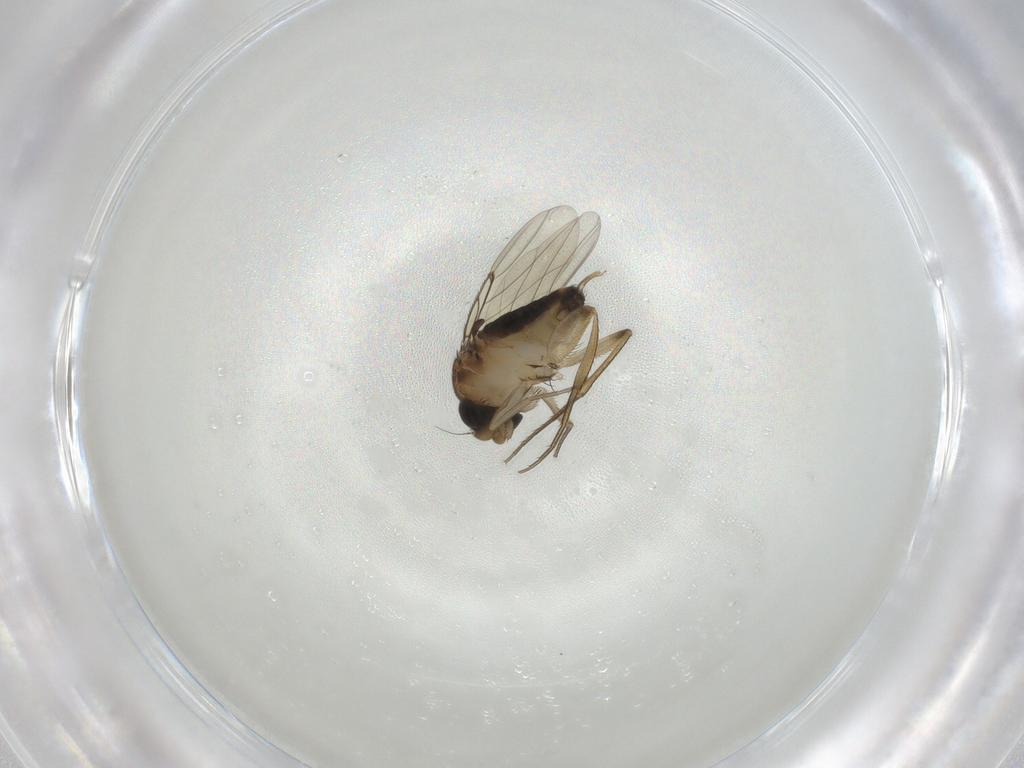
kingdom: Animalia
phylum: Arthropoda
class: Insecta
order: Diptera
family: Phoridae
